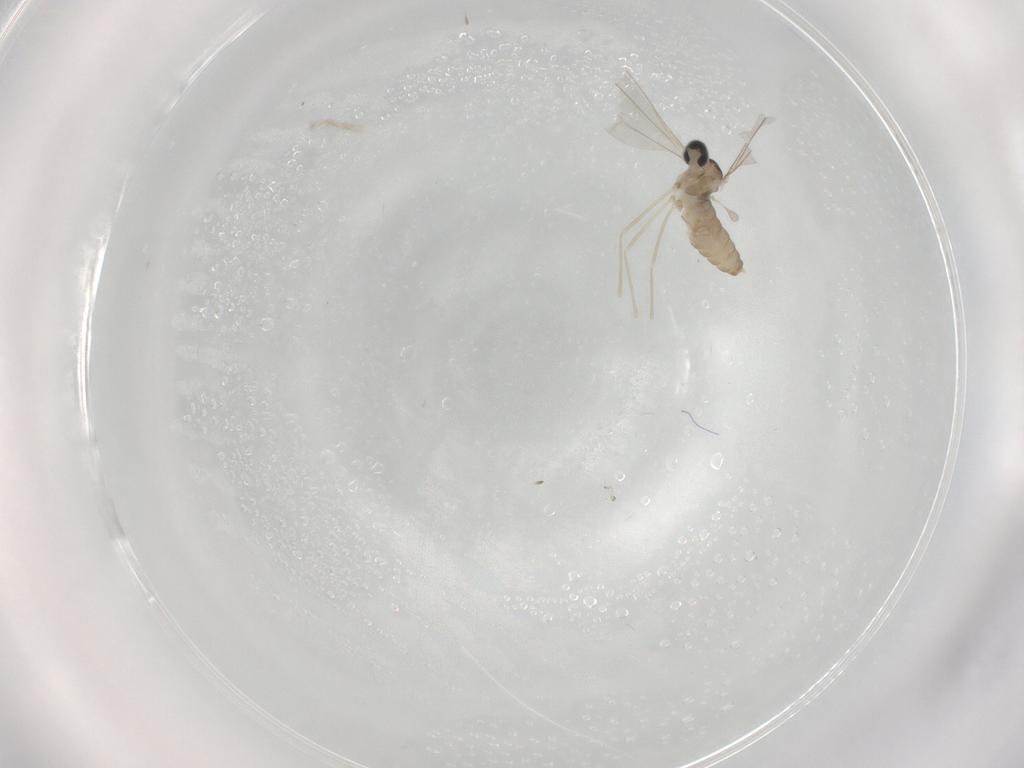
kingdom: Animalia
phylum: Arthropoda
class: Insecta
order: Diptera
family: Cecidomyiidae
